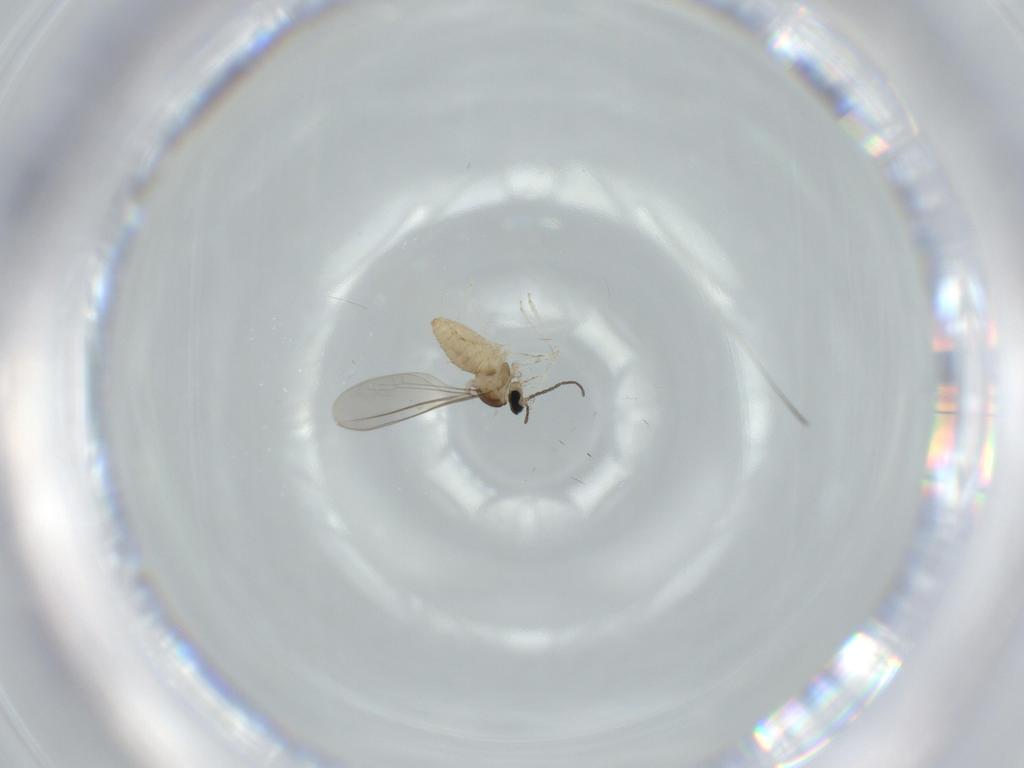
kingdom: Animalia
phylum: Arthropoda
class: Insecta
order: Diptera
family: Cecidomyiidae
